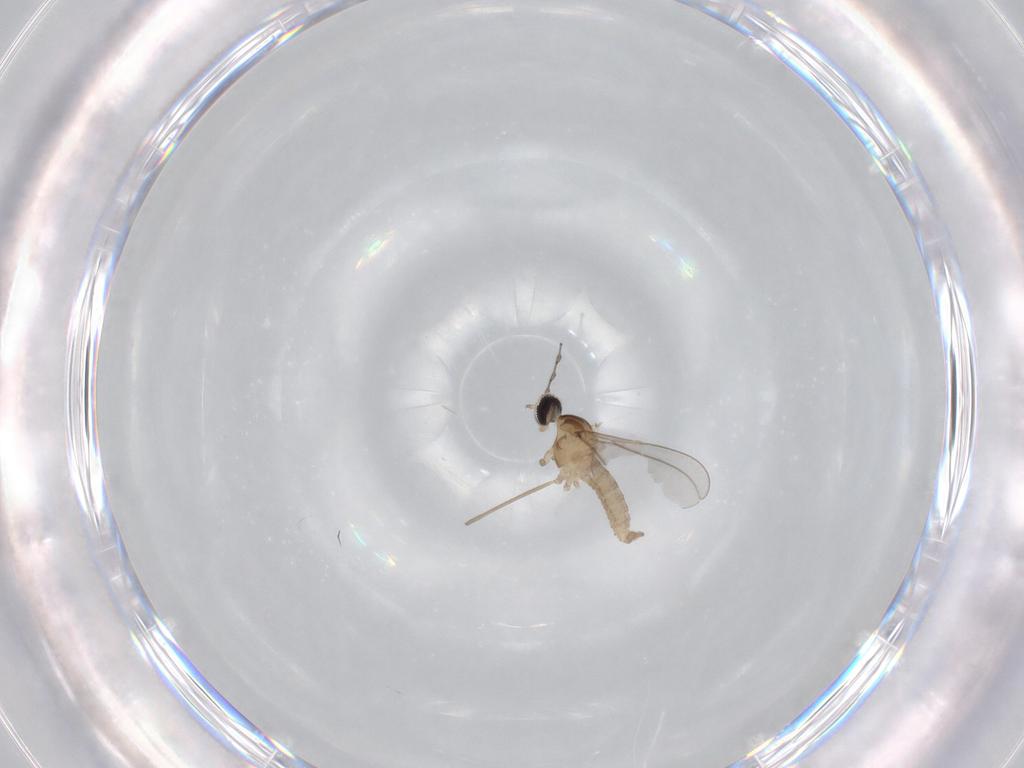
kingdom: Animalia
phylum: Arthropoda
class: Insecta
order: Diptera
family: Cecidomyiidae
